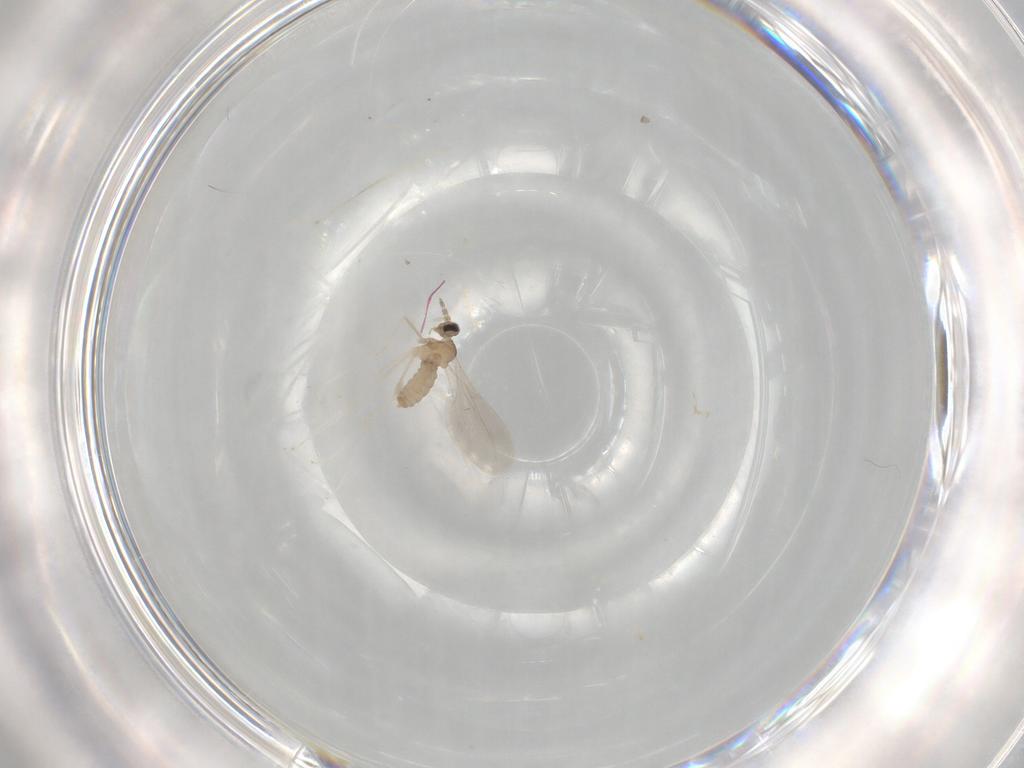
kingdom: Animalia
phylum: Arthropoda
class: Insecta
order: Diptera
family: Cecidomyiidae
